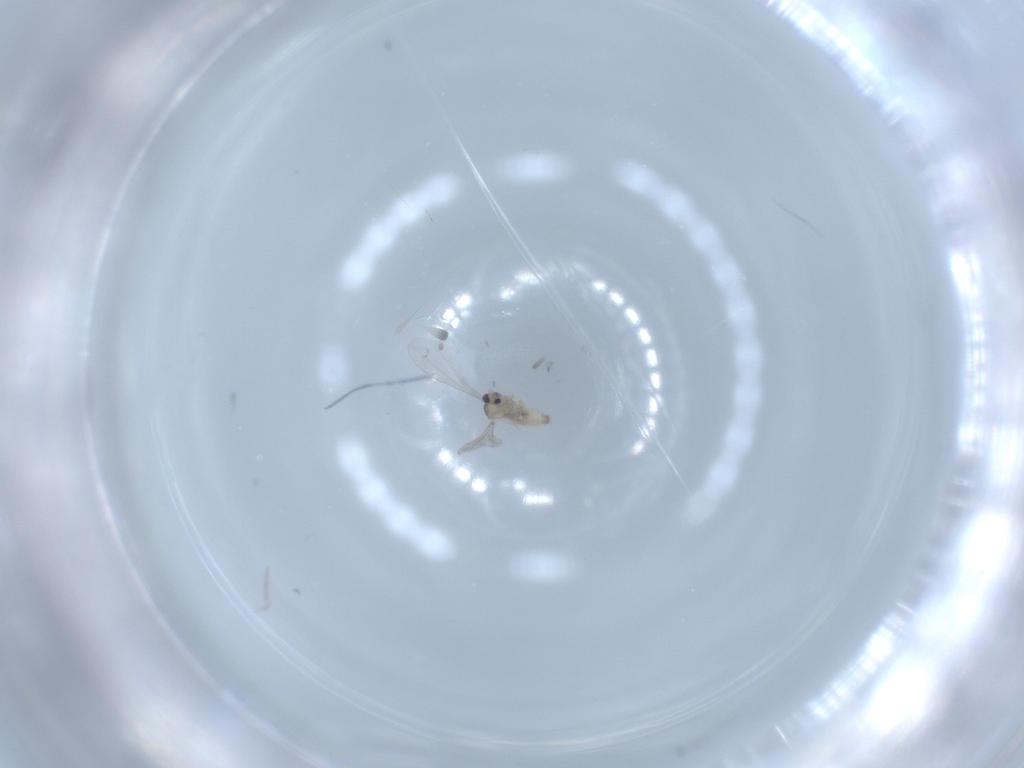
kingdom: Animalia
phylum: Arthropoda
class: Insecta
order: Diptera
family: Cecidomyiidae
